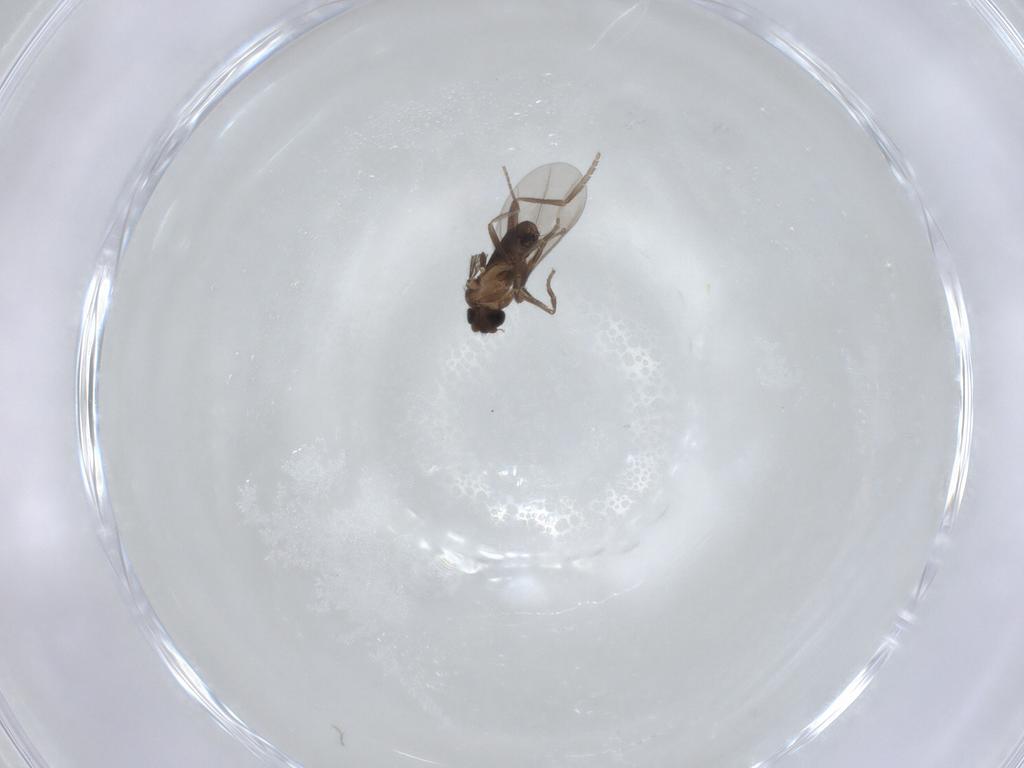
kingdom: Animalia
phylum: Arthropoda
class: Insecta
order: Diptera
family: Phoridae
